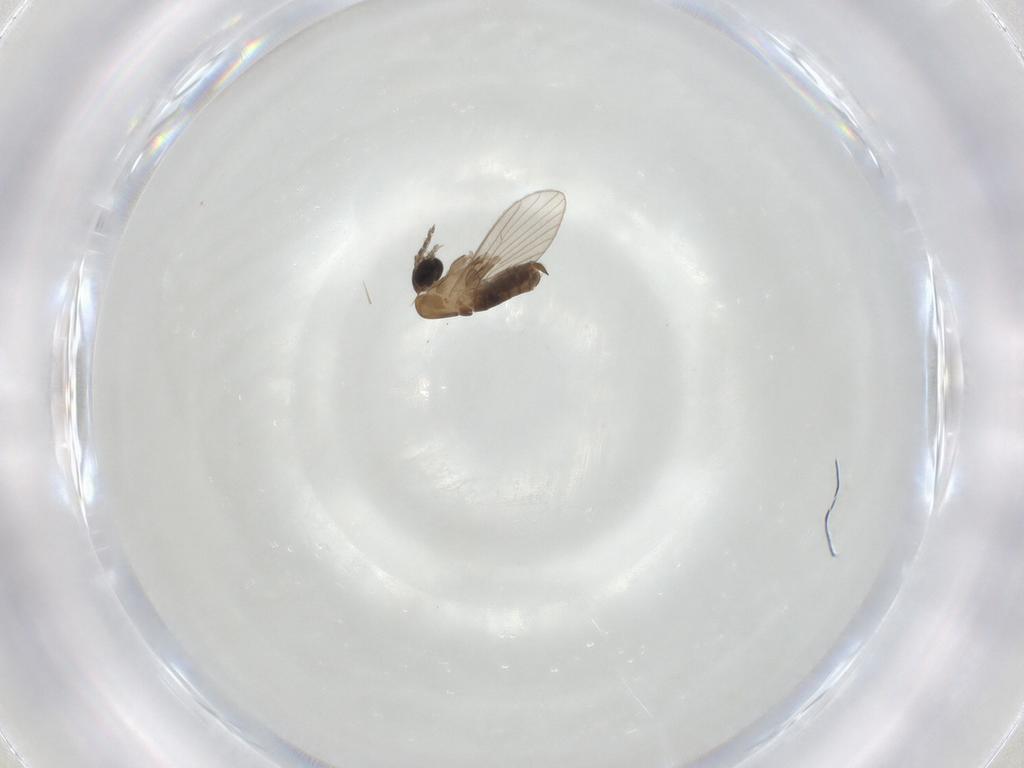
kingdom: Animalia
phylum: Arthropoda
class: Insecta
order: Diptera
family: Psychodidae
